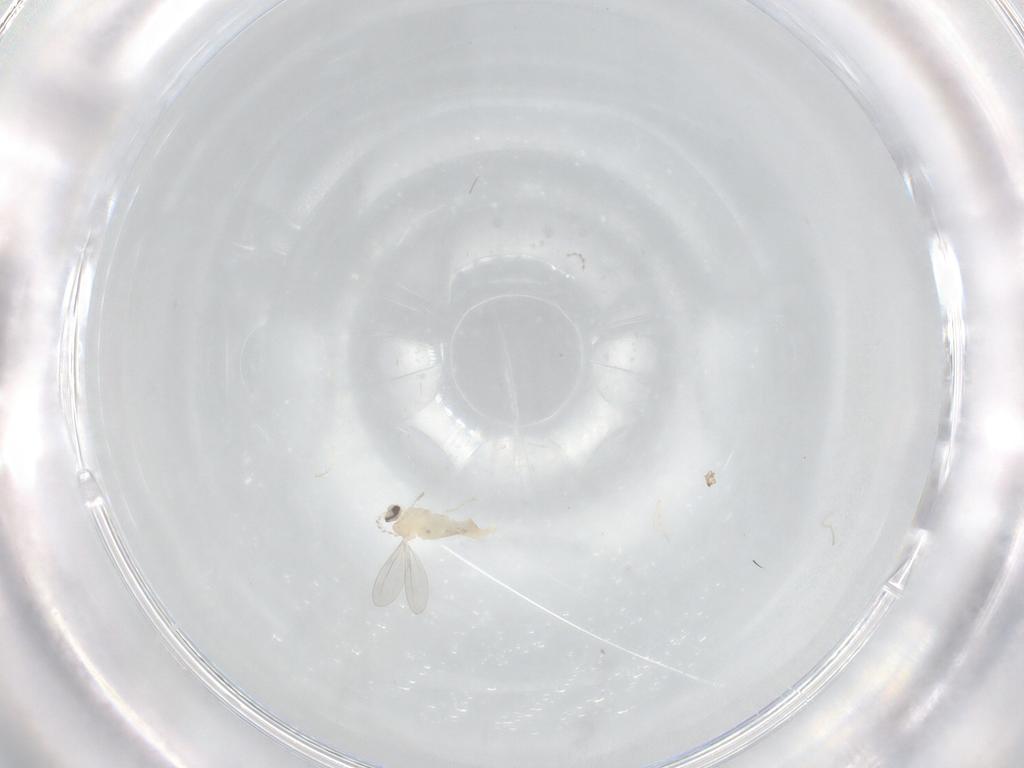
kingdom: Animalia
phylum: Arthropoda
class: Insecta
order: Diptera
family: Cecidomyiidae
